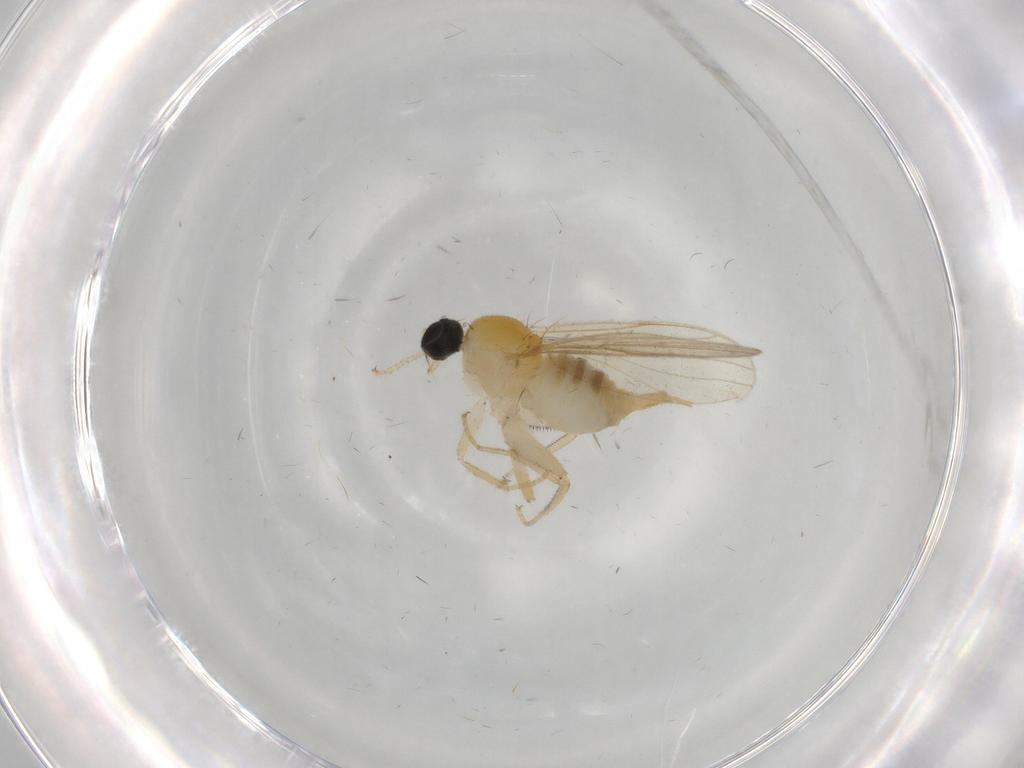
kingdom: Animalia
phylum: Arthropoda
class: Insecta
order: Diptera
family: Hybotidae
